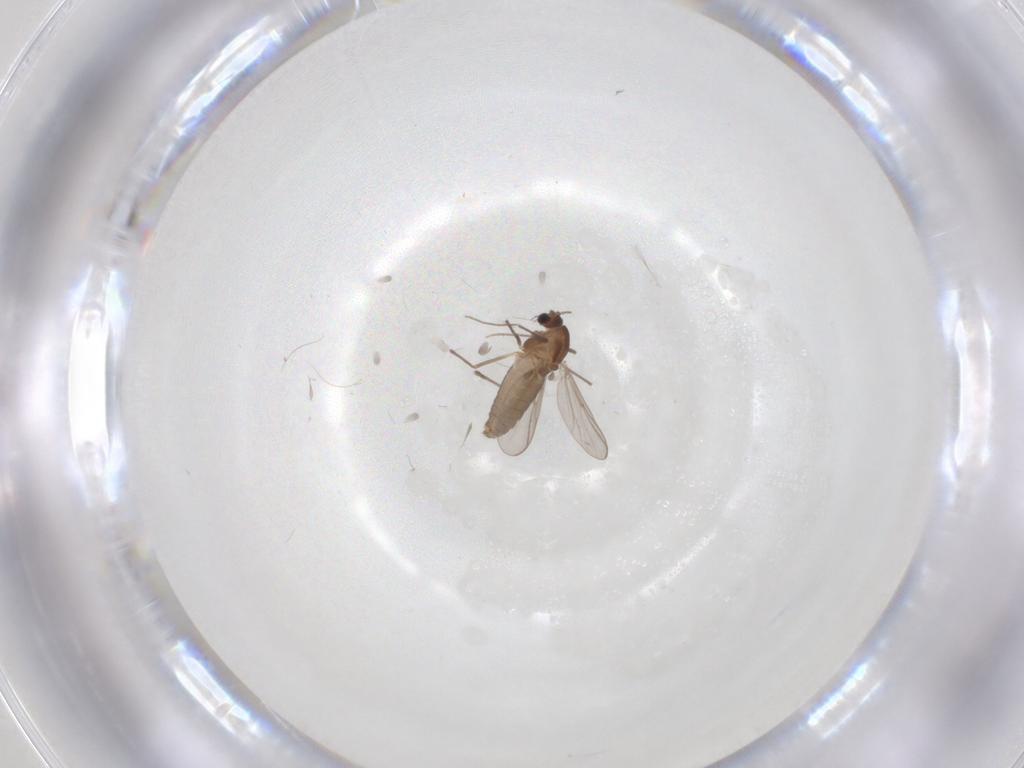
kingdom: Animalia
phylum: Arthropoda
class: Insecta
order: Diptera
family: Chironomidae
